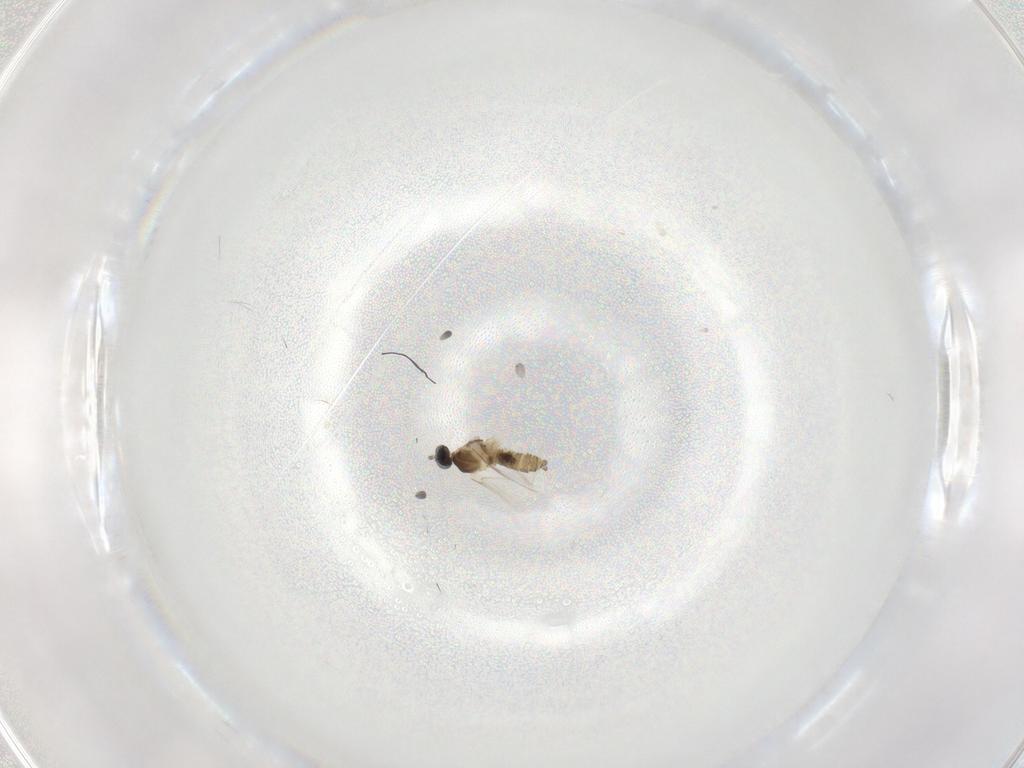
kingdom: Animalia
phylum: Arthropoda
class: Insecta
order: Diptera
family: Cecidomyiidae
